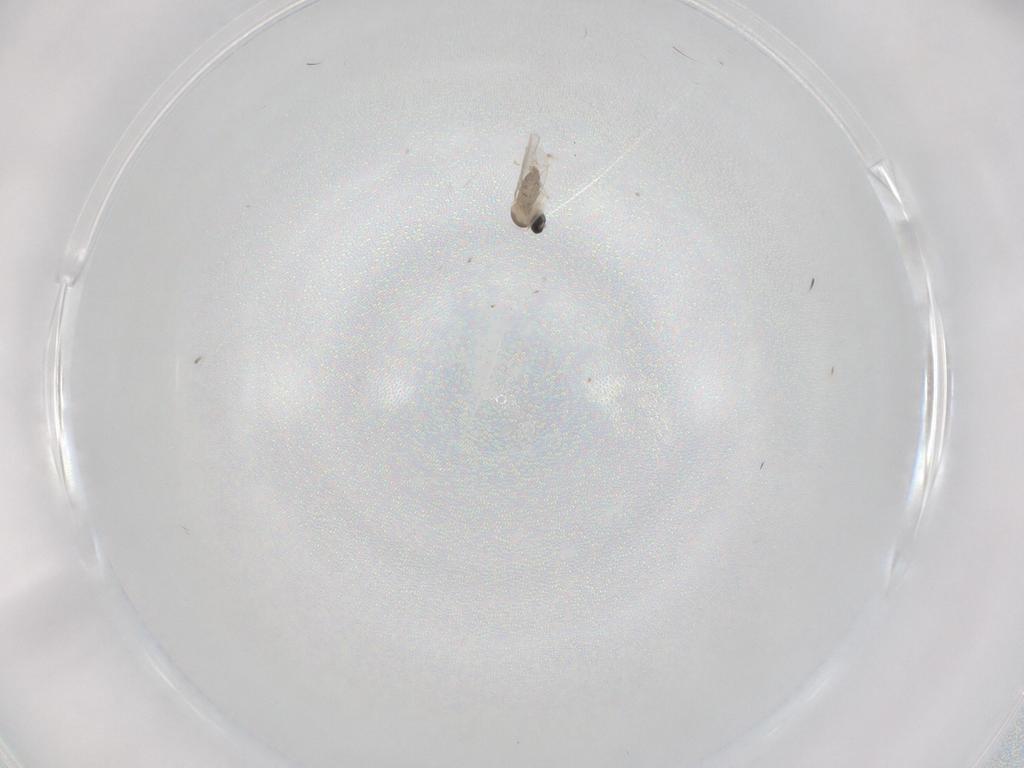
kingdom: Animalia
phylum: Arthropoda
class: Insecta
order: Diptera
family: Cecidomyiidae
